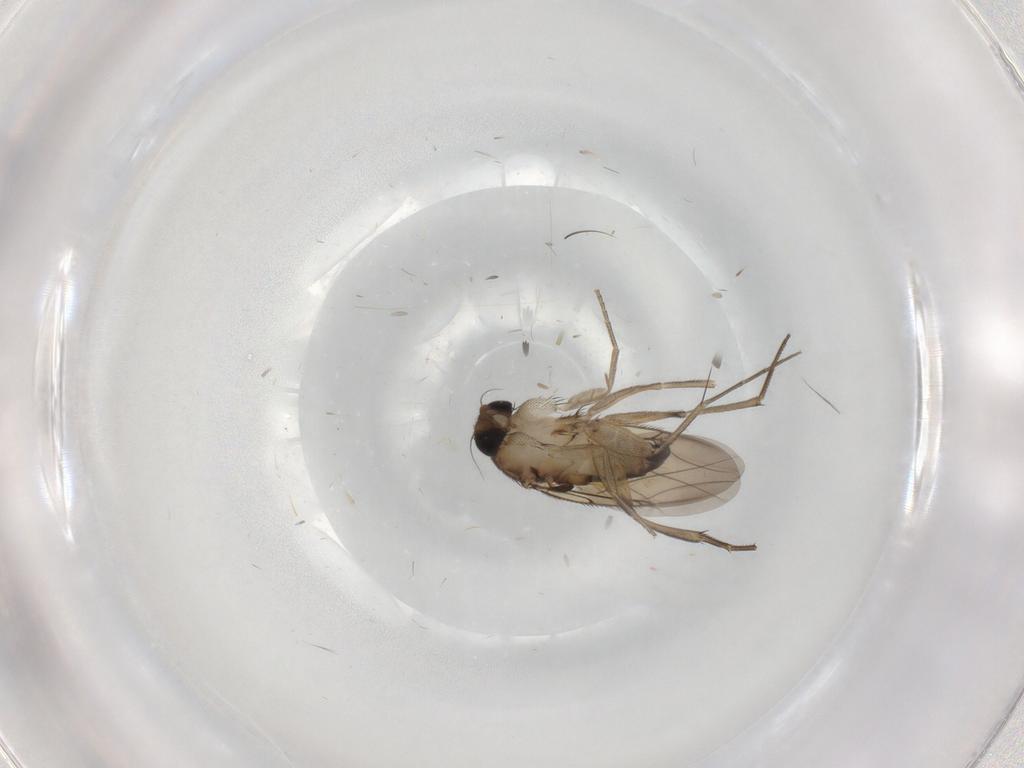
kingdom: Animalia
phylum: Arthropoda
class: Insecta
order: Diptera
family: Phoridae
